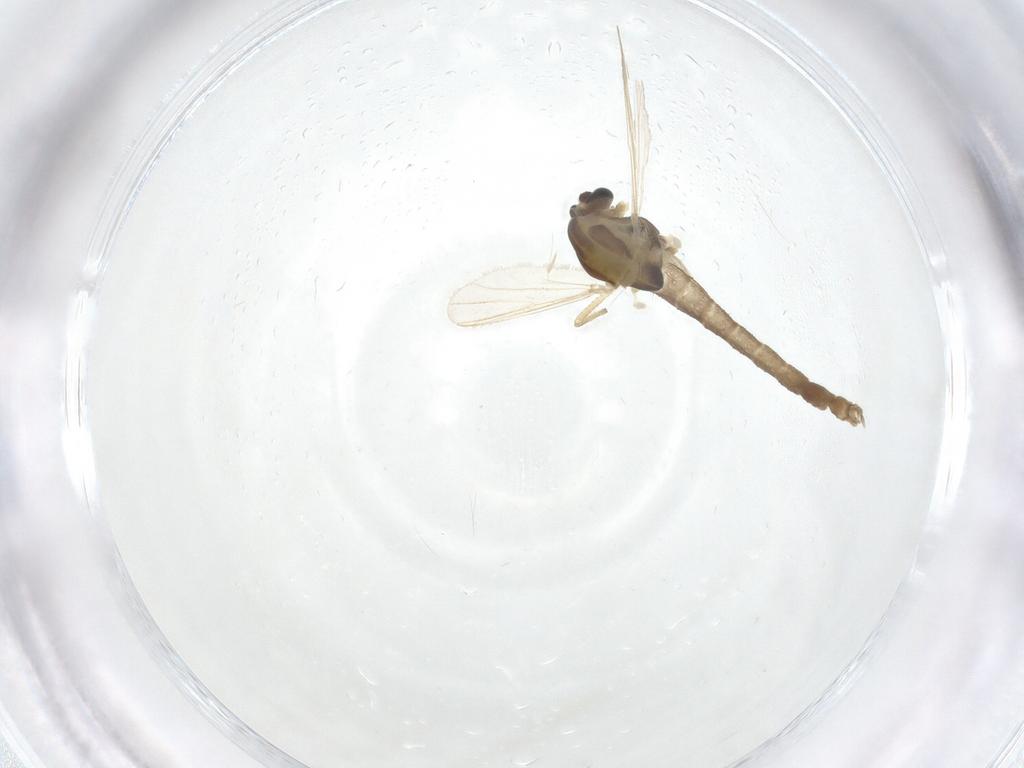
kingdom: Animalia
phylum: Arthropoda
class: Insecta
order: Diptera
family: Chironomidae
